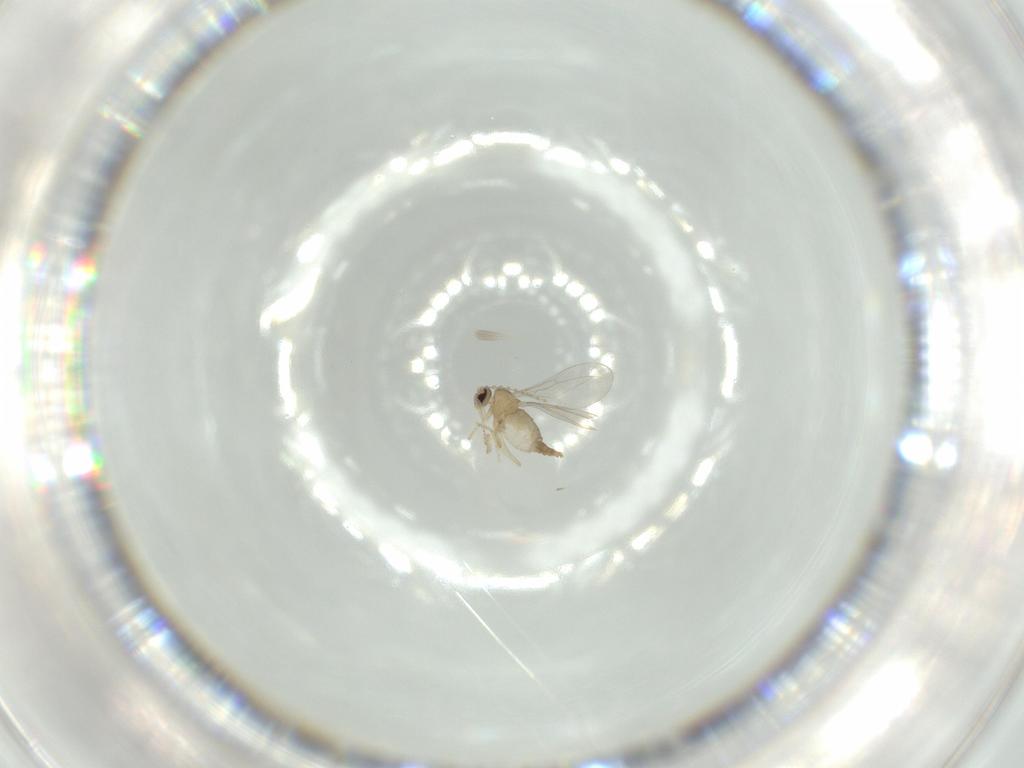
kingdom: Animalia
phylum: Arthropoda
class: Insecta
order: Diptera
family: Cecidomyiidae
